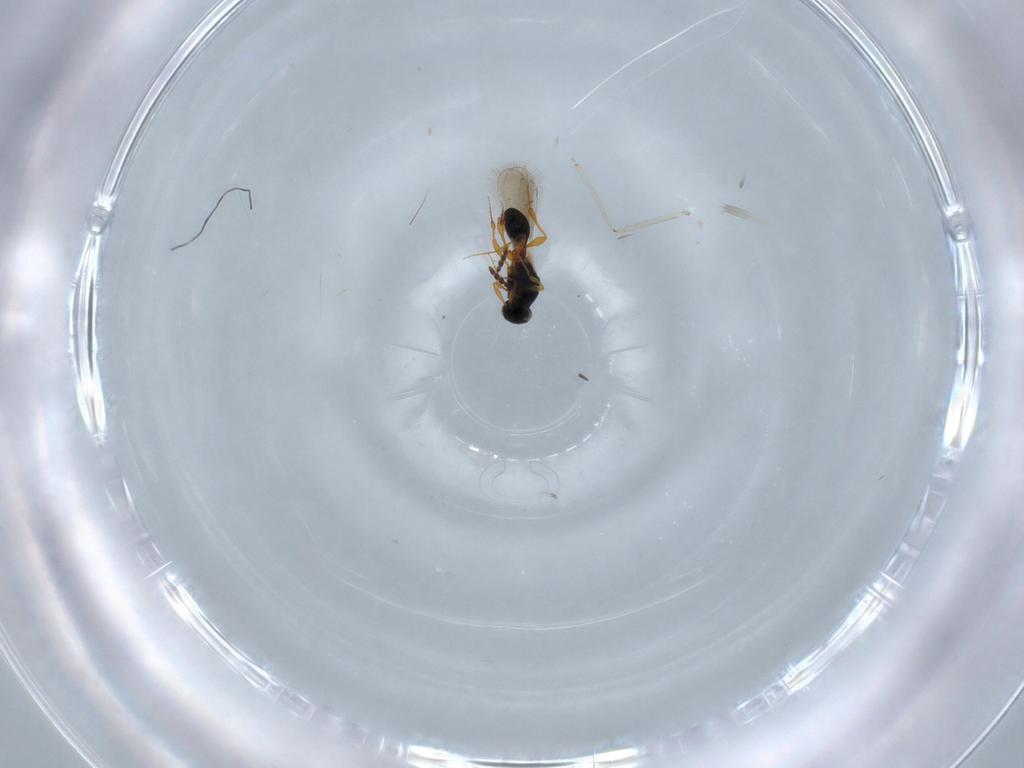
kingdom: Animalia
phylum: Arthropoda
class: Insecta
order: Hymenoptera
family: Platygastridae
